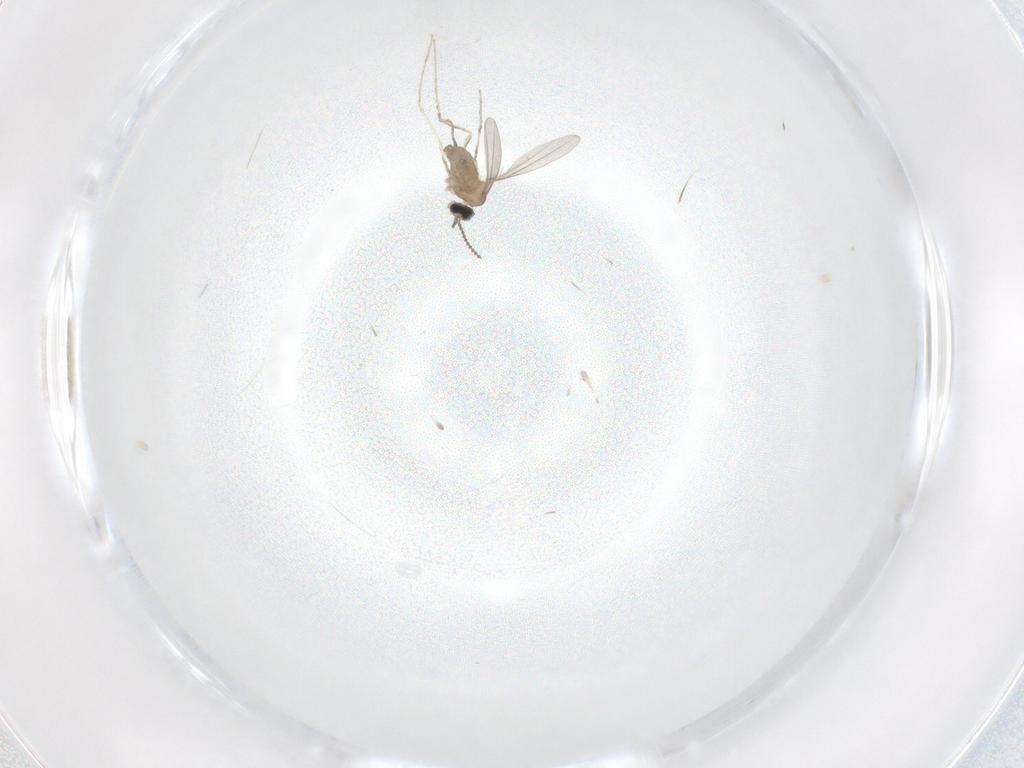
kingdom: Animalia
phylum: Arthropoda
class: Insecta
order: Diptera
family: Cecidomyiidae
